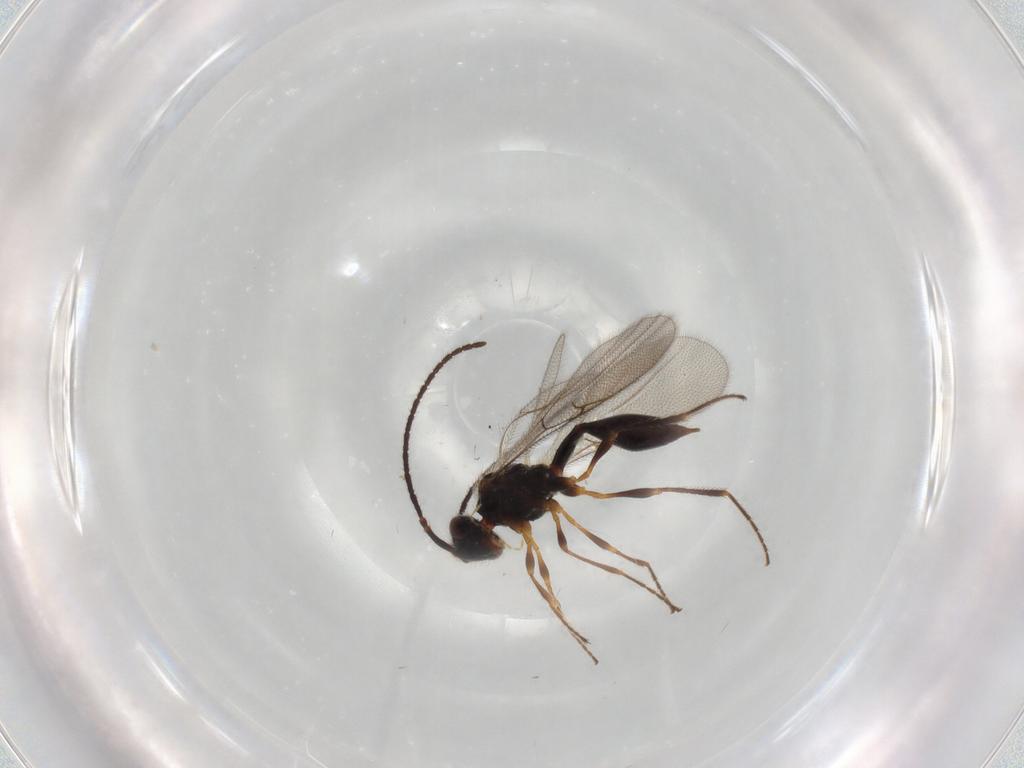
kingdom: Animalia
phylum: Arthropoda
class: Insecta
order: Hymenoptera
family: Diapriidae
